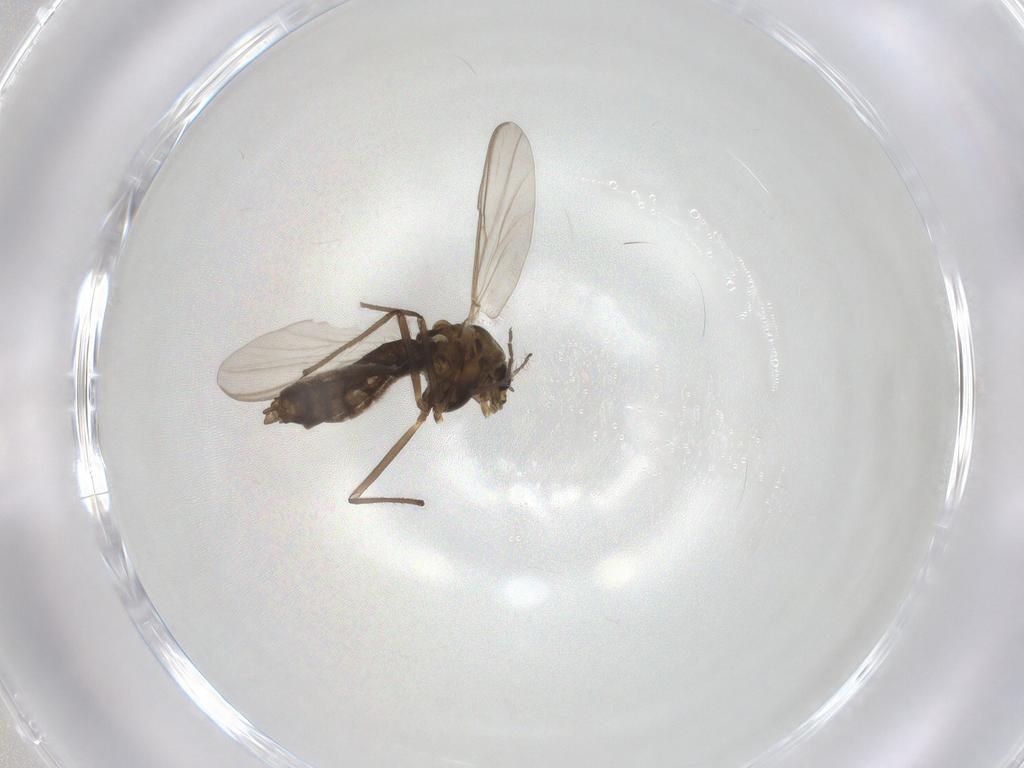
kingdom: Animalia
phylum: Arthropoda
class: Insecta
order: Diptera
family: Chironomidae
